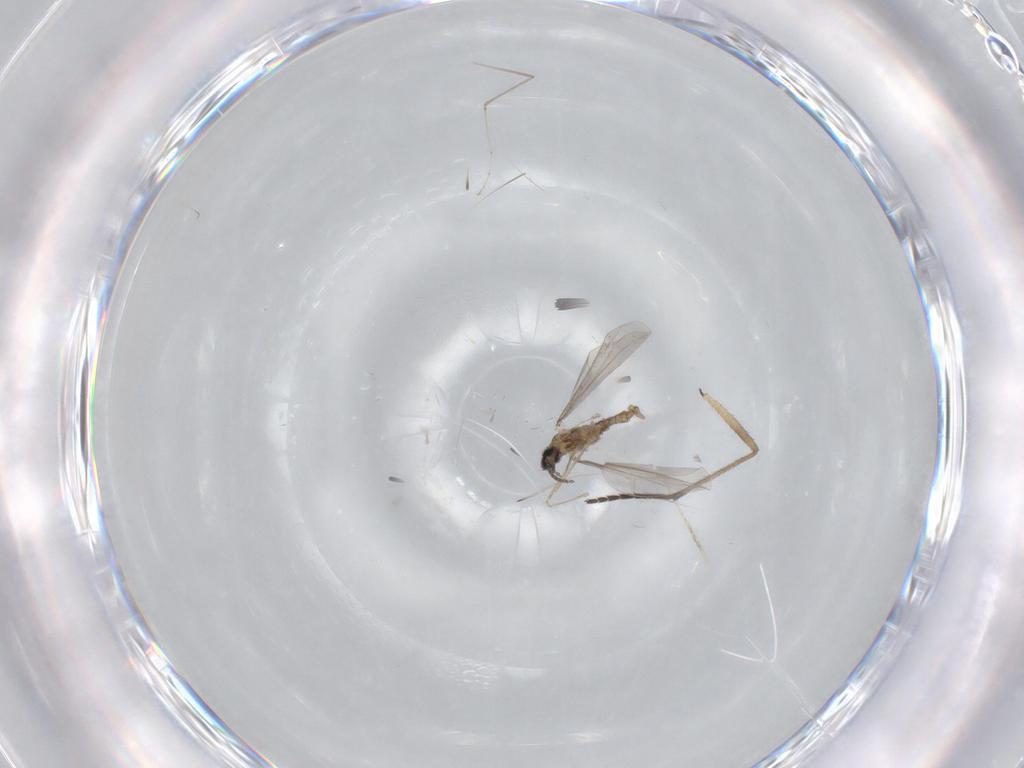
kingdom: Animalia
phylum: Arthropoda
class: Insecta
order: Diptera
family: Cecidomyiidae
